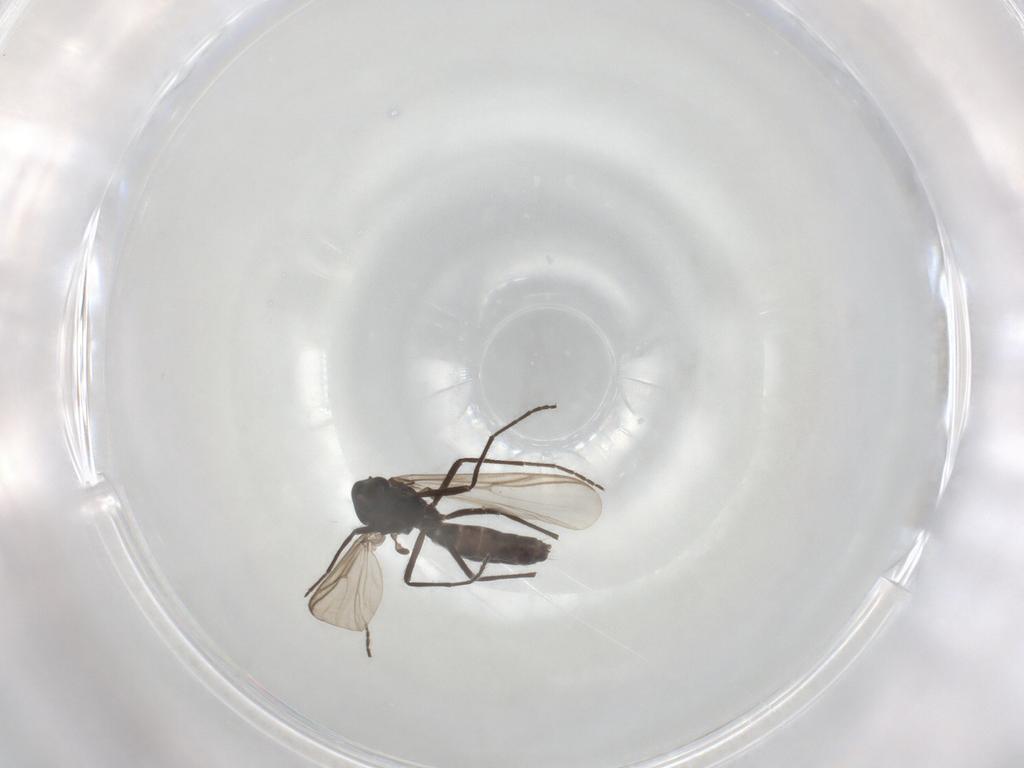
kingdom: Animalia
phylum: Arthropoda
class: Insecta
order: Diptera
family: Chironomidae
